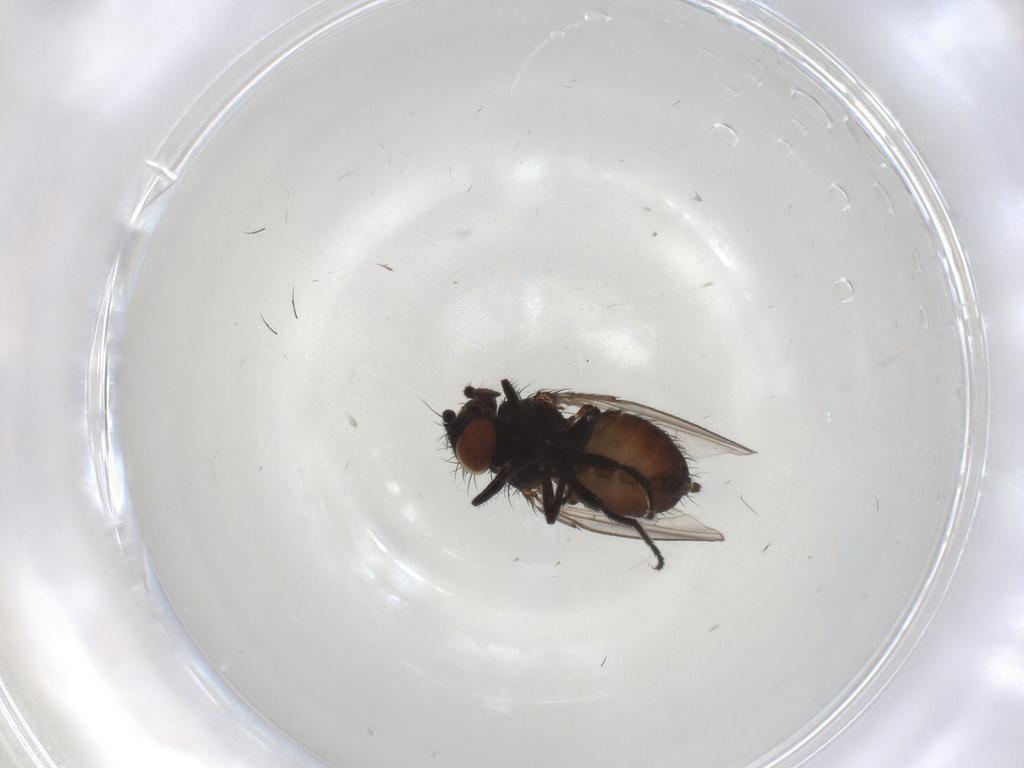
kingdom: Animalia
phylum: Arthropoda
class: Insecta
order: Diptera
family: Milichiidae
